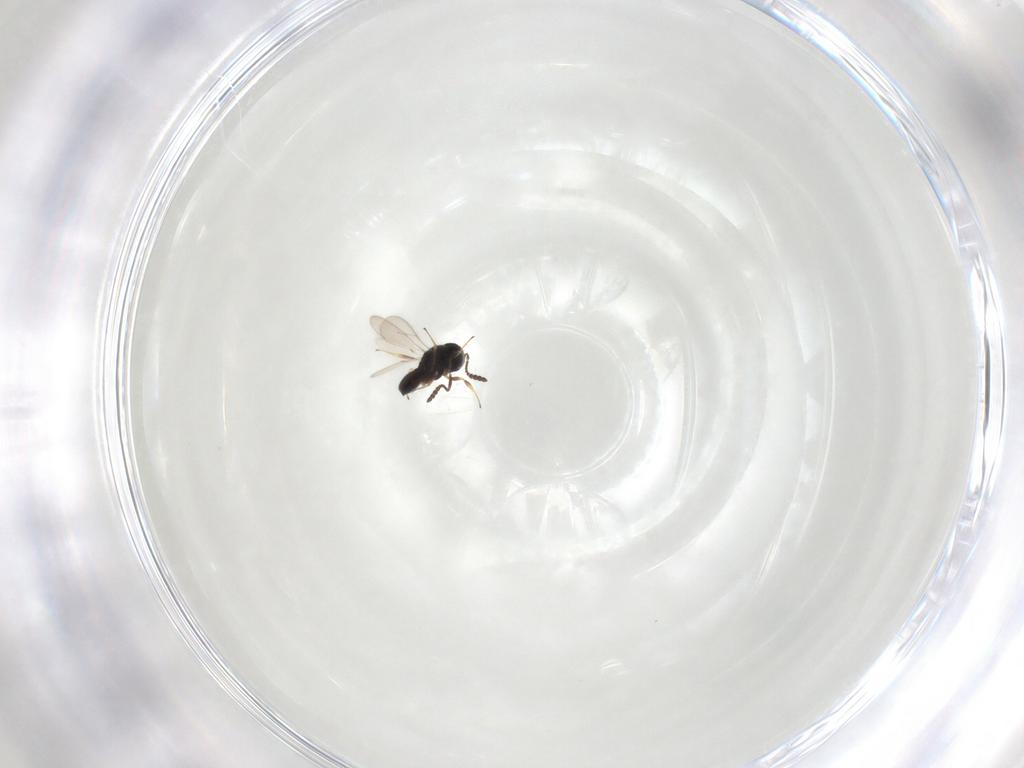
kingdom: Animalia
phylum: Arthropoda
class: Insecta
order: Hymenoptera
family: Scelionidae
